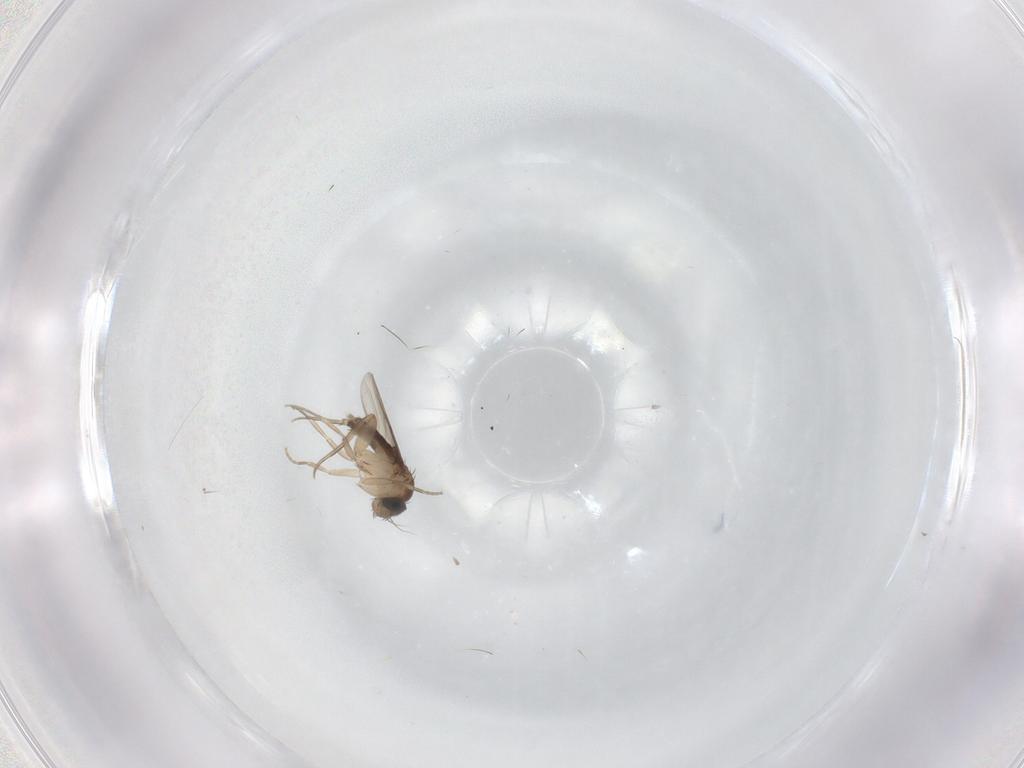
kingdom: Animalia
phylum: Arthropoda
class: Insecta
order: Diptera
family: Phoridae
